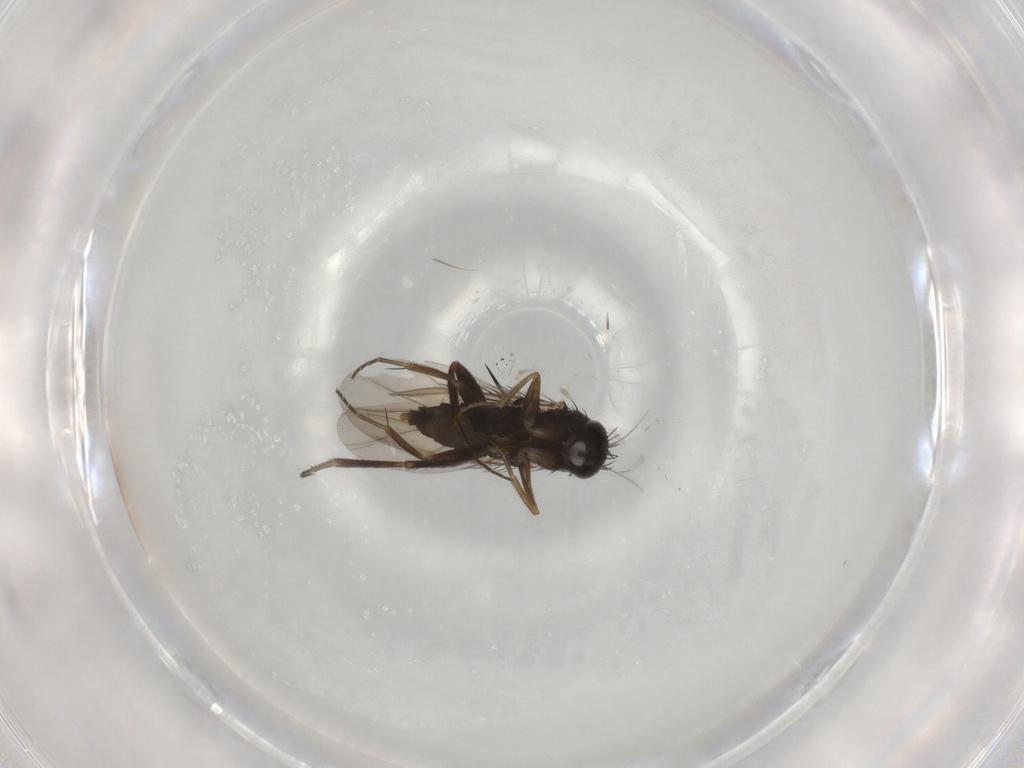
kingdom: Animalia
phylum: Arthropoda
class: Insecta
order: Diptera
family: Phoridae
